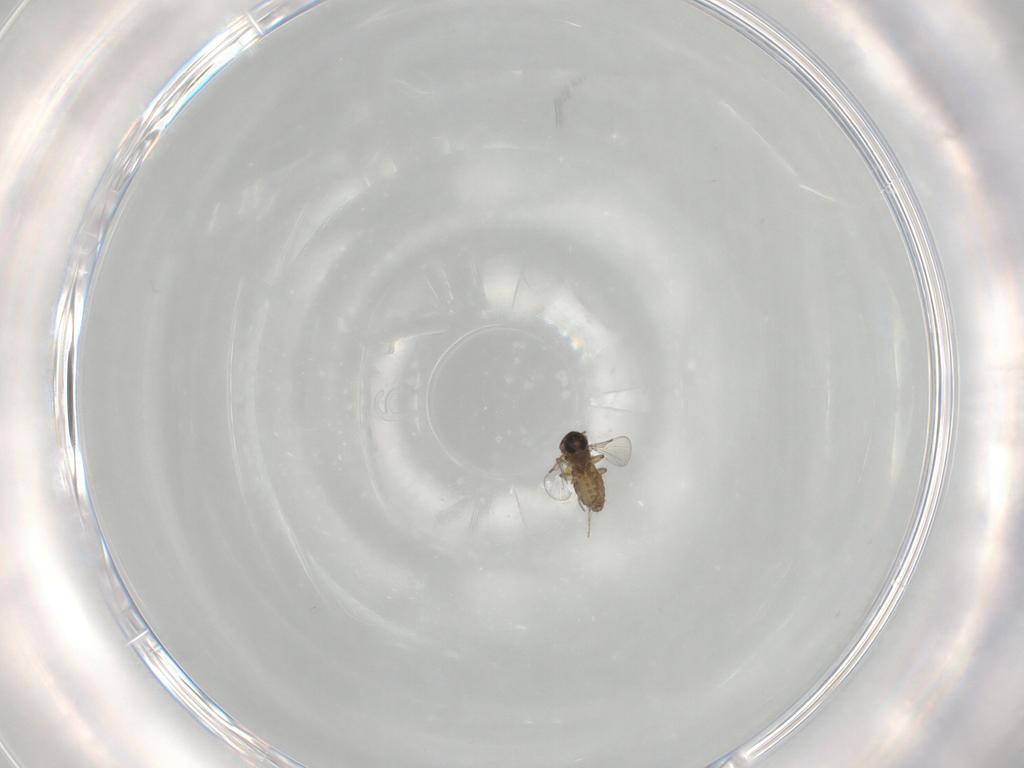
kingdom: Animalia
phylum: Arthropoda
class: Insecta
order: Diptera
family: Ceratopogonidae
